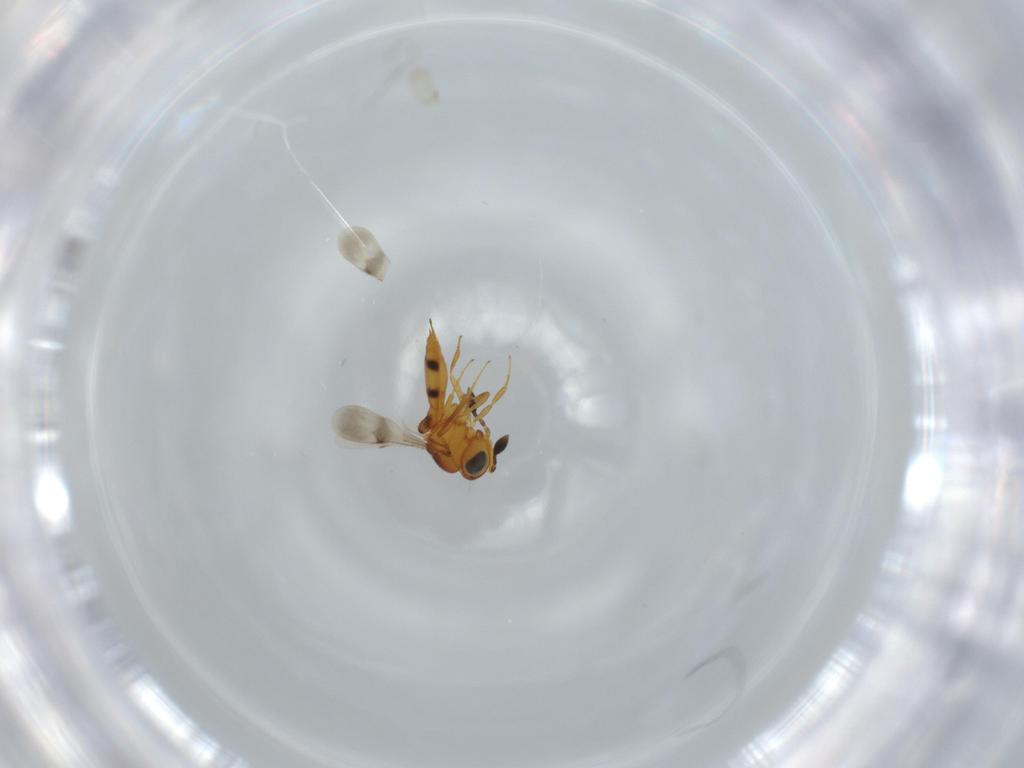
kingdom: Animalia
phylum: Arthropoda
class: Insecta
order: Hymenoptera
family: Scelionidae
